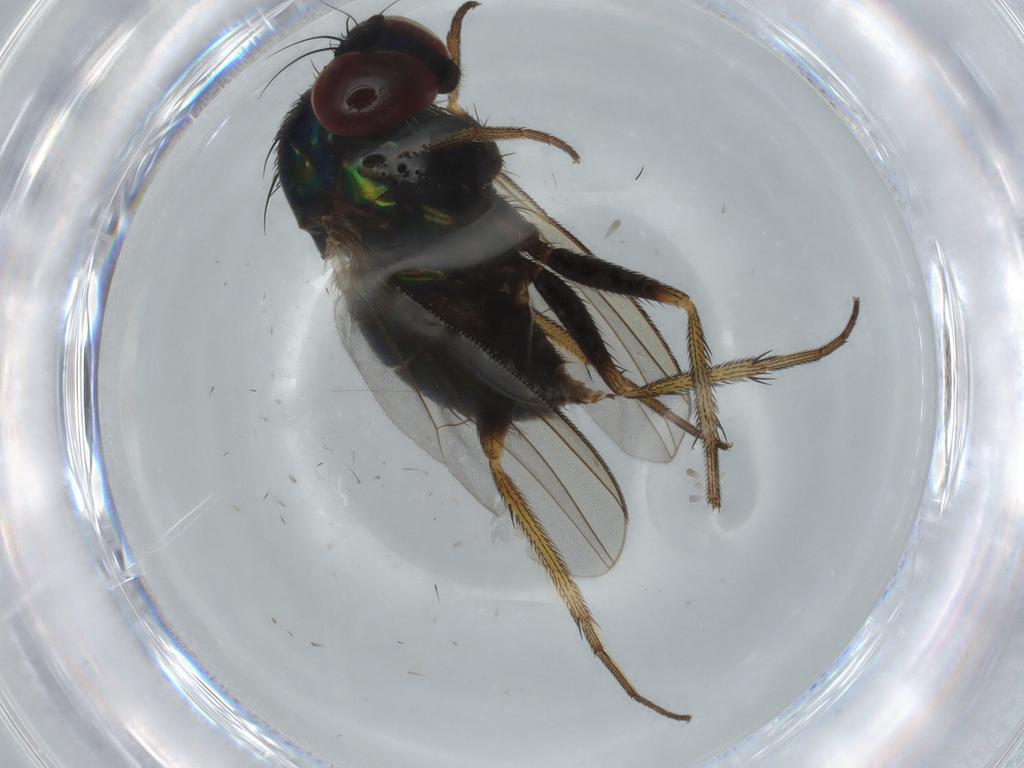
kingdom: Animalia
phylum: Arthropoda
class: Insecta
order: Diptera
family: Dolichopodidae
